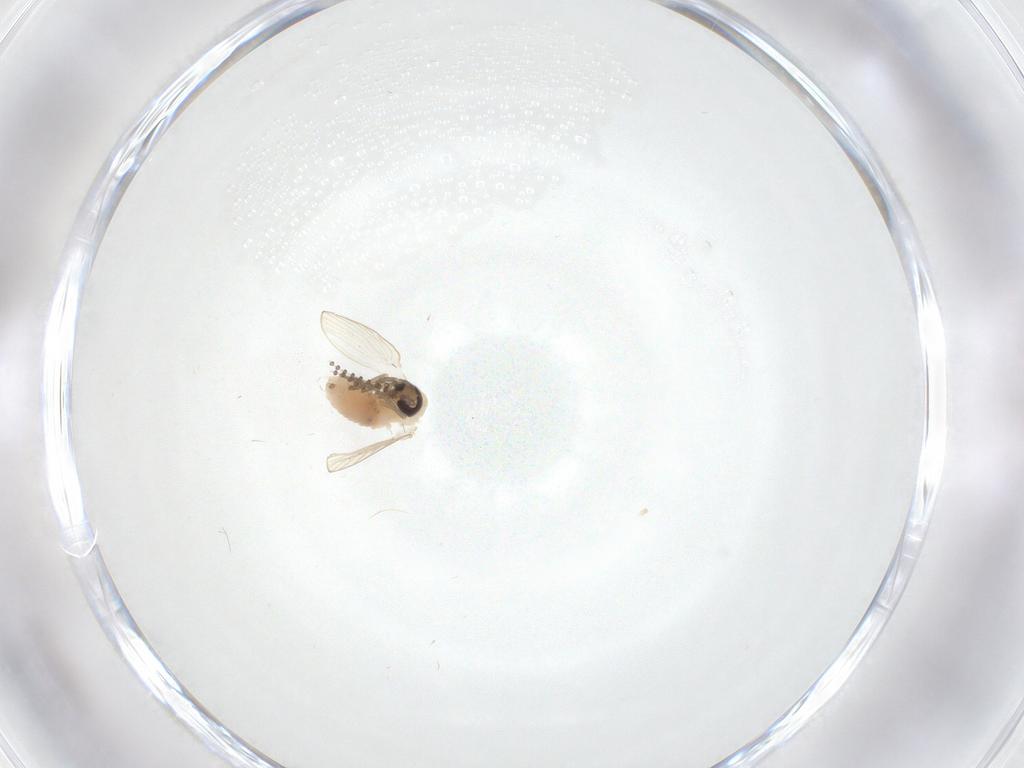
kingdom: Animalia
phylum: Arthropoda
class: Insecta
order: Diptera
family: Psychodidae
